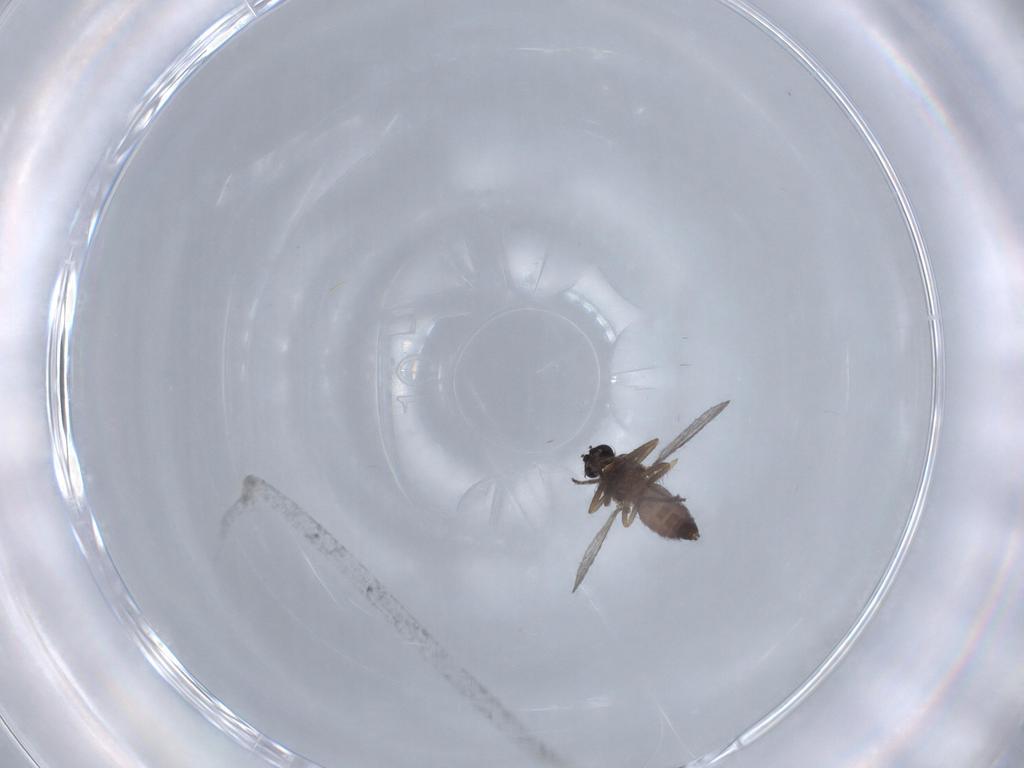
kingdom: Animalia
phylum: Arthropoda
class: Insecta
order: Diptera
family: Chironomidae
